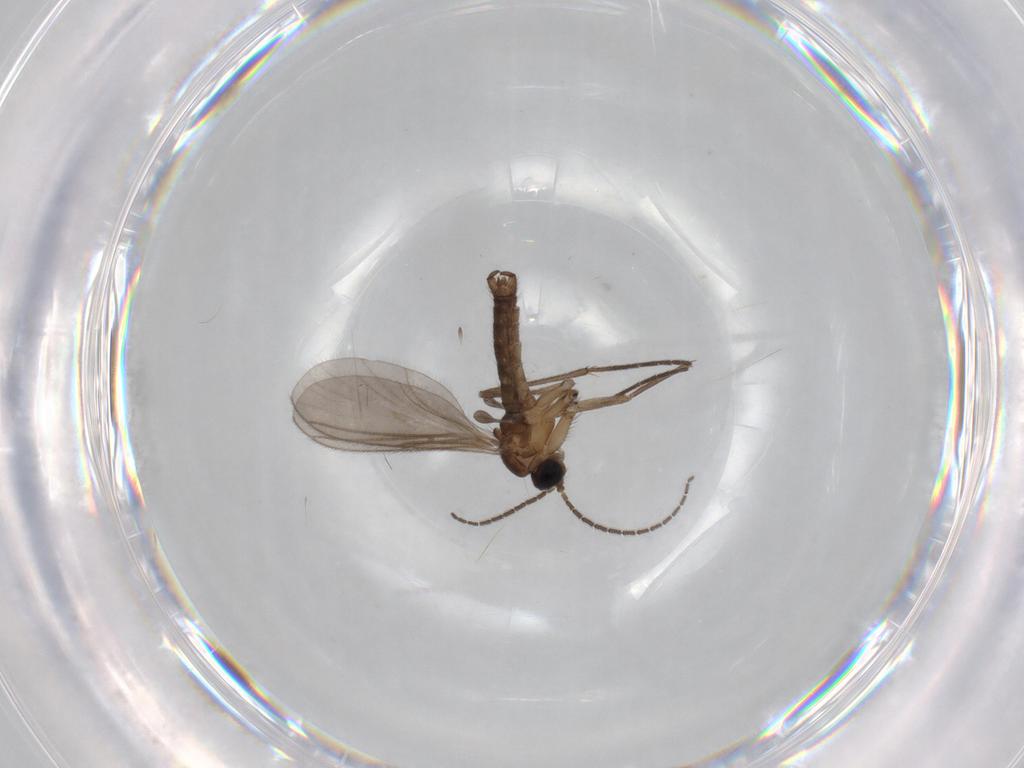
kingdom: Animalia
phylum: Arthropoda
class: Insecta
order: Diptera
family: Chironomidae
